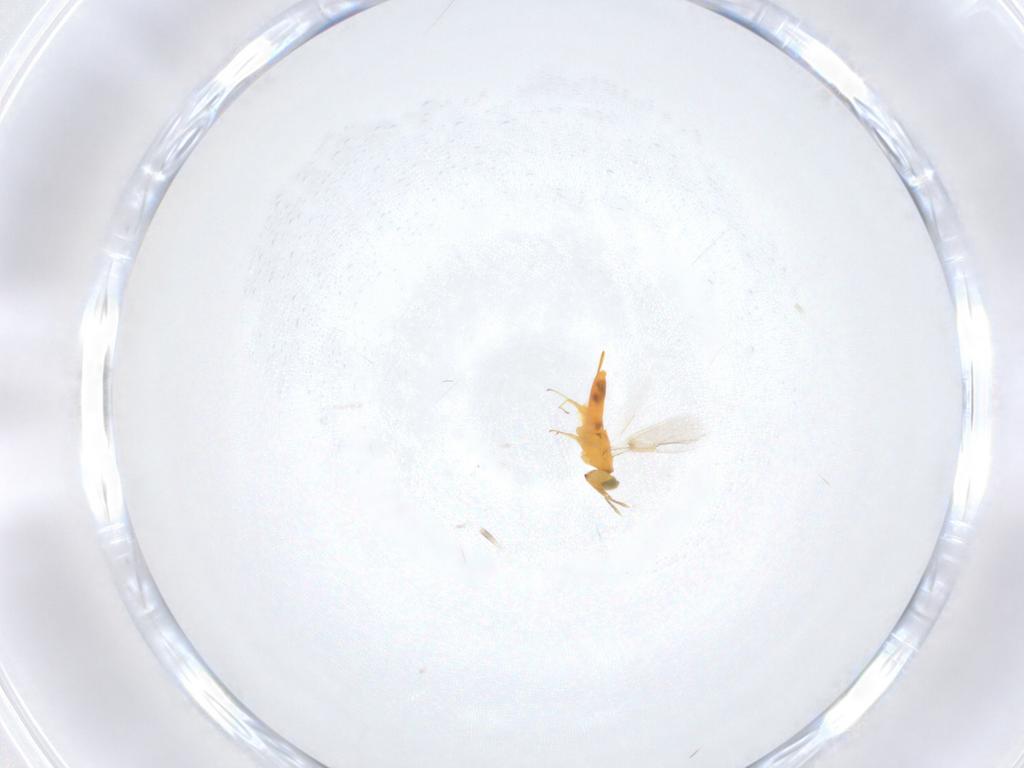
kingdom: Animalia
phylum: Arthropoda
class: Insecta
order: Hymenoptera
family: Aphelinidae
